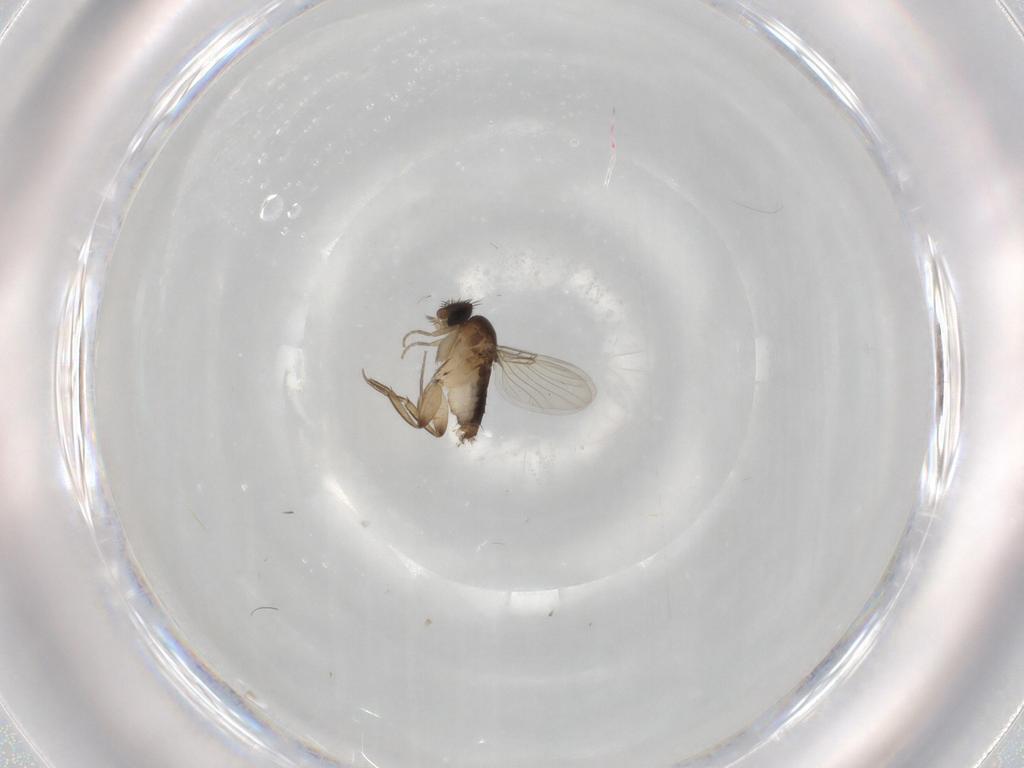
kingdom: Animalia
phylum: Arthropoda
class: Insecta
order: Diptera
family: Phoridae
